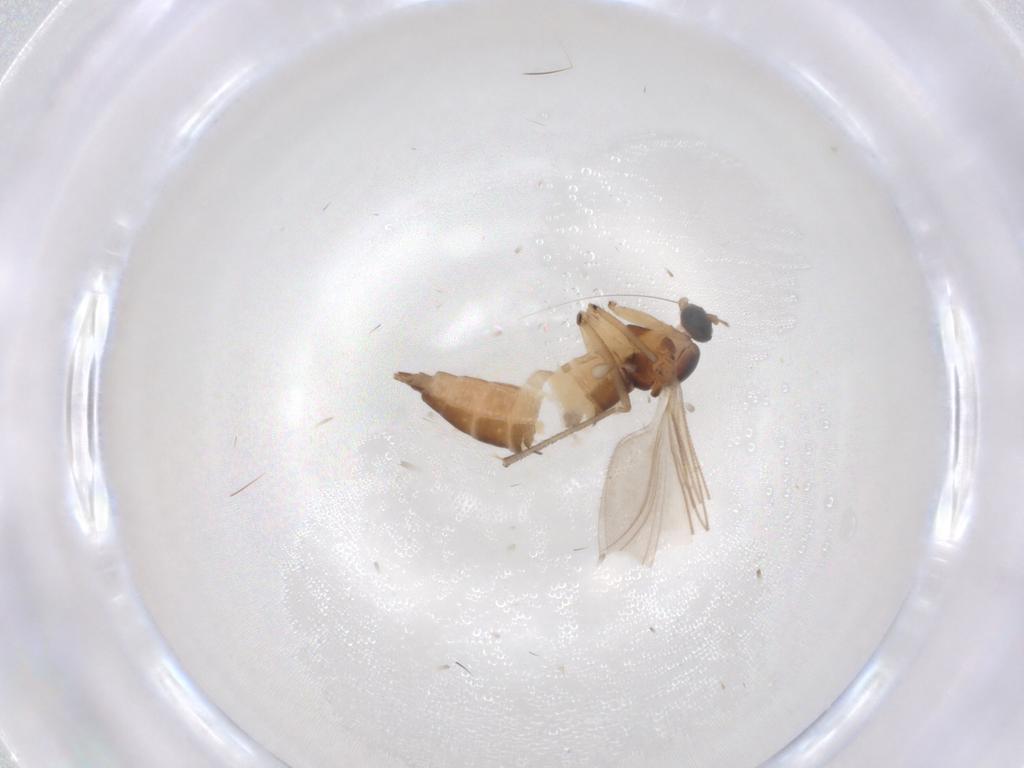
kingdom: Animalia
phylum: Arthropoda
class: Insecta
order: Diptera
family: Sciaridae
